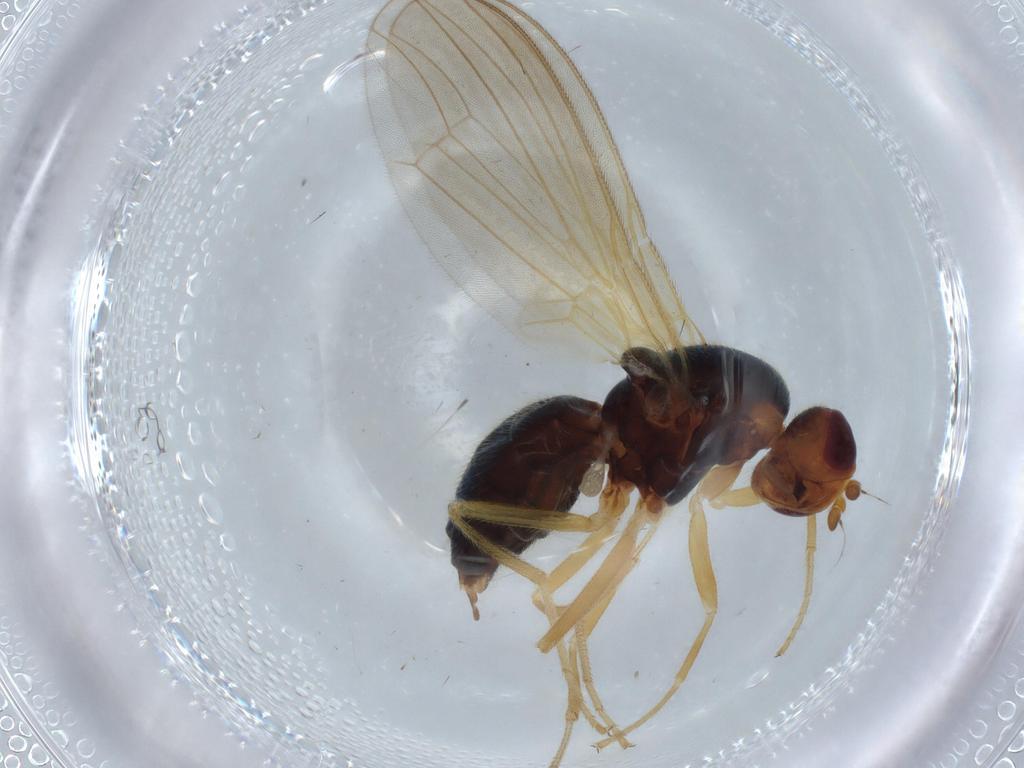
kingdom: Animalia
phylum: Arthropoda
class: Insecta
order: Diptera
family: Psilidae
